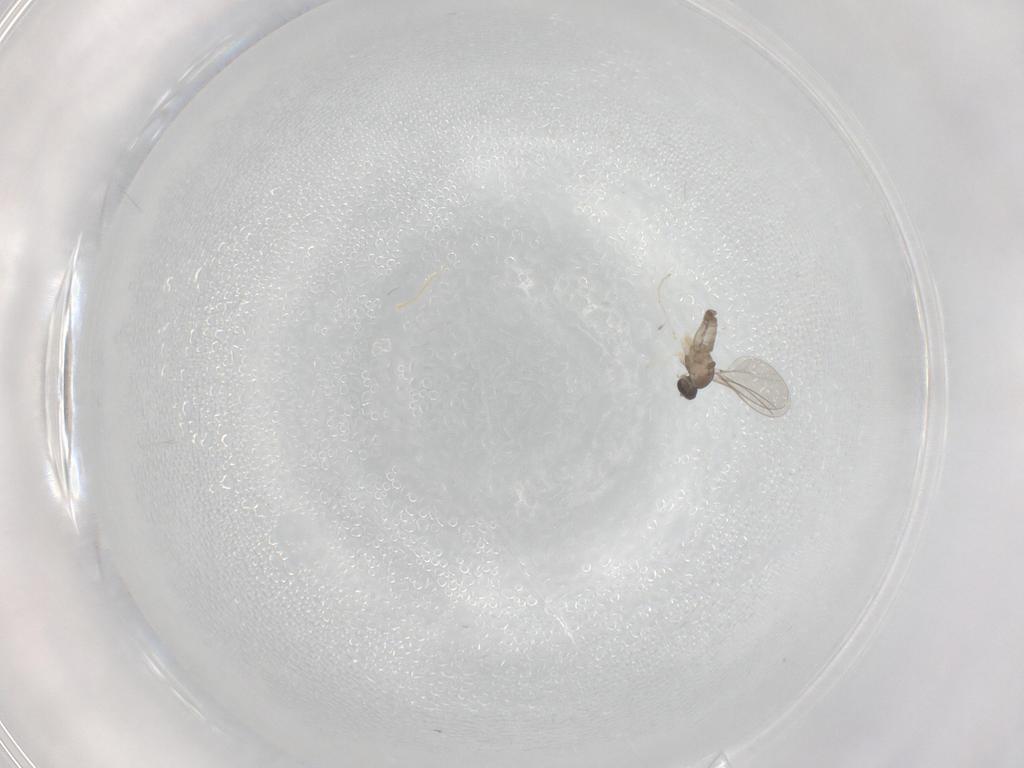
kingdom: Animalia
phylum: Arthropoda
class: Insecta
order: Diptera
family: Cecidomyiidae
